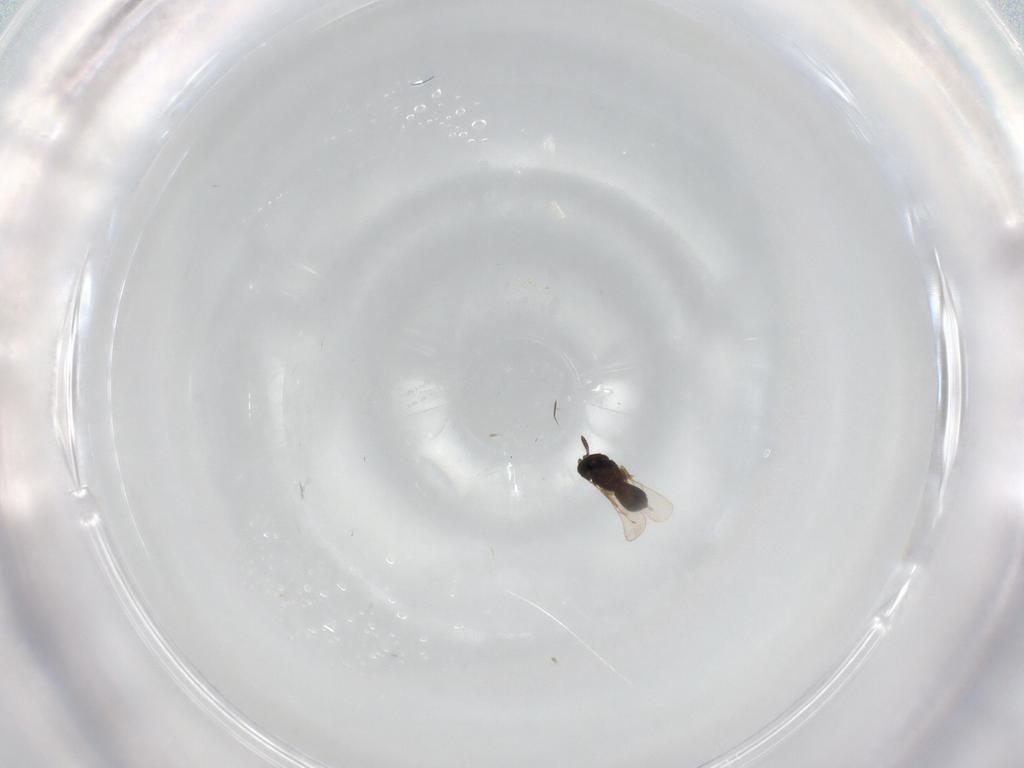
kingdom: Animalia
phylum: Arthropoda
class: Insecta
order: Hymenoptera
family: Scelionidae
